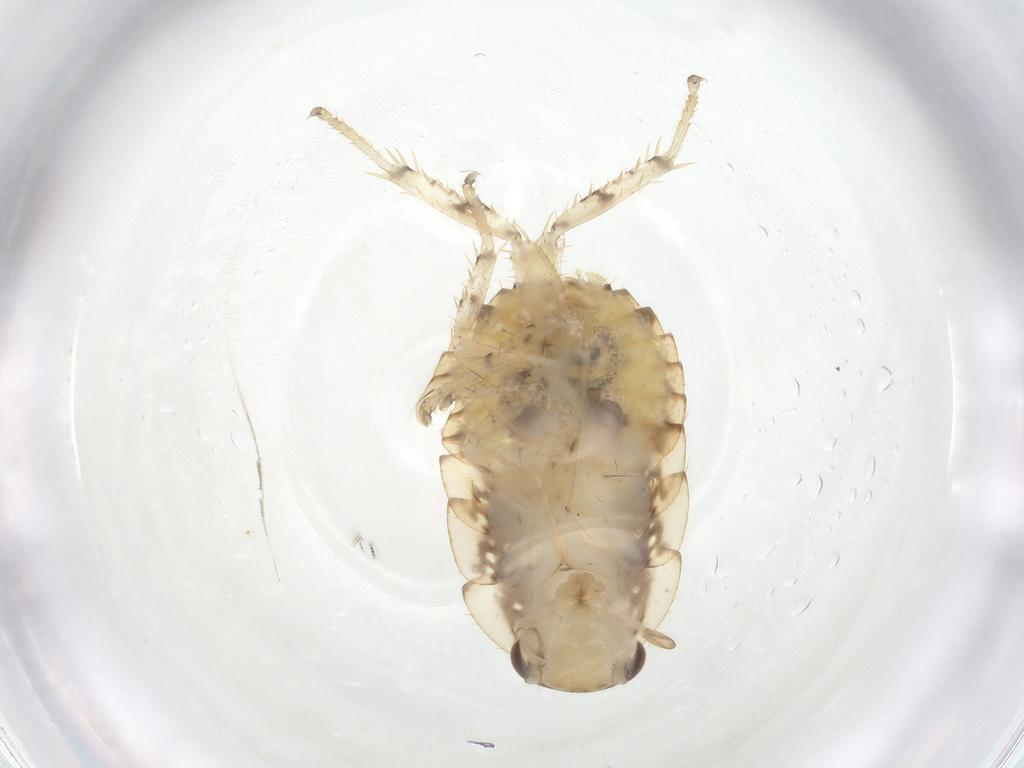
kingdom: Animalia
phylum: Arthropoda
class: Insecta
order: Blattodea
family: Ectobiidae
